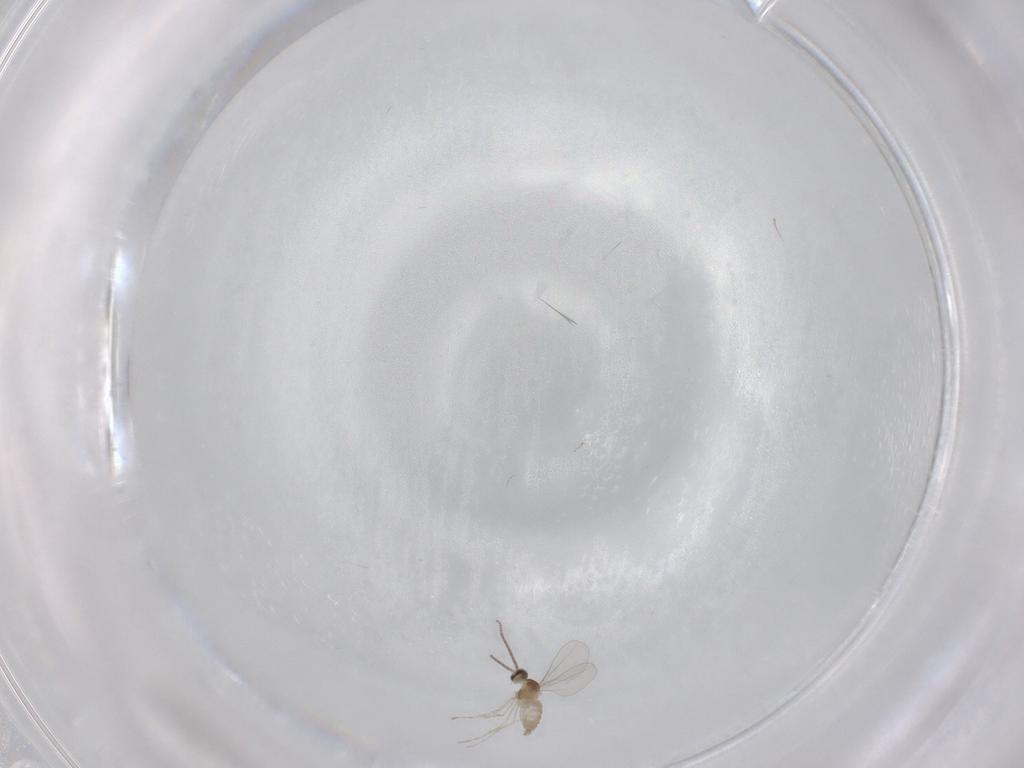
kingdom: Animalia
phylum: Arthropoda
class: Insecta
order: Diptera
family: Cecidomyiidae
